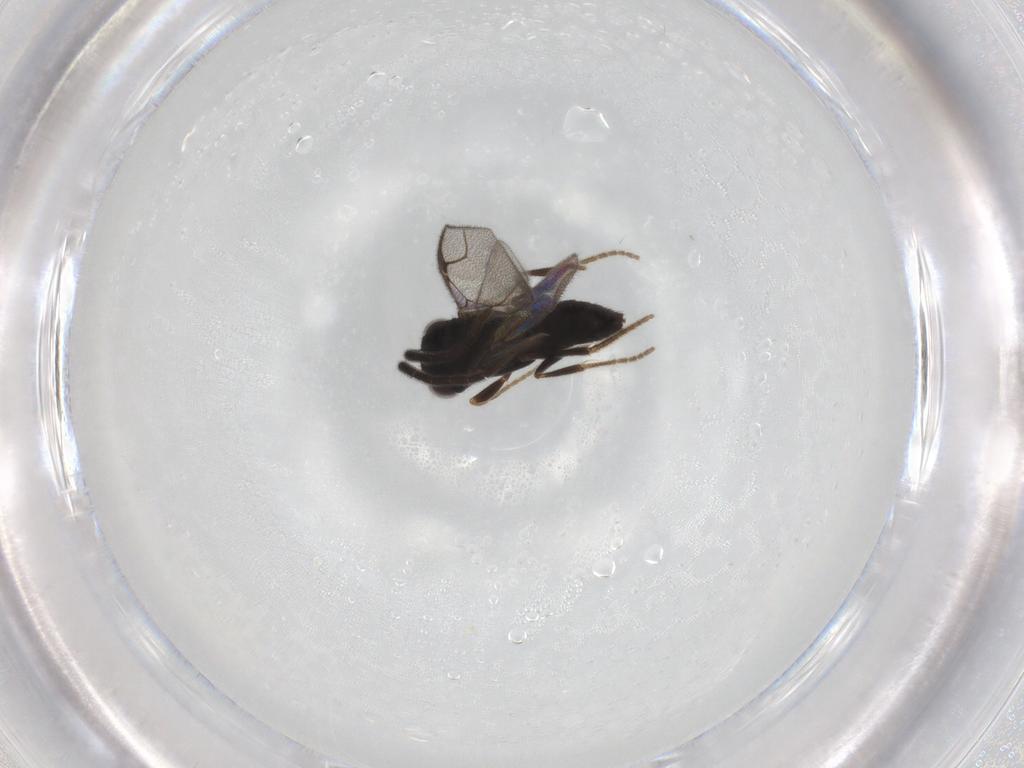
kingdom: Animalia
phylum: Arthropoda
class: Insecta
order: Hymenoptera
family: Dryinidae
